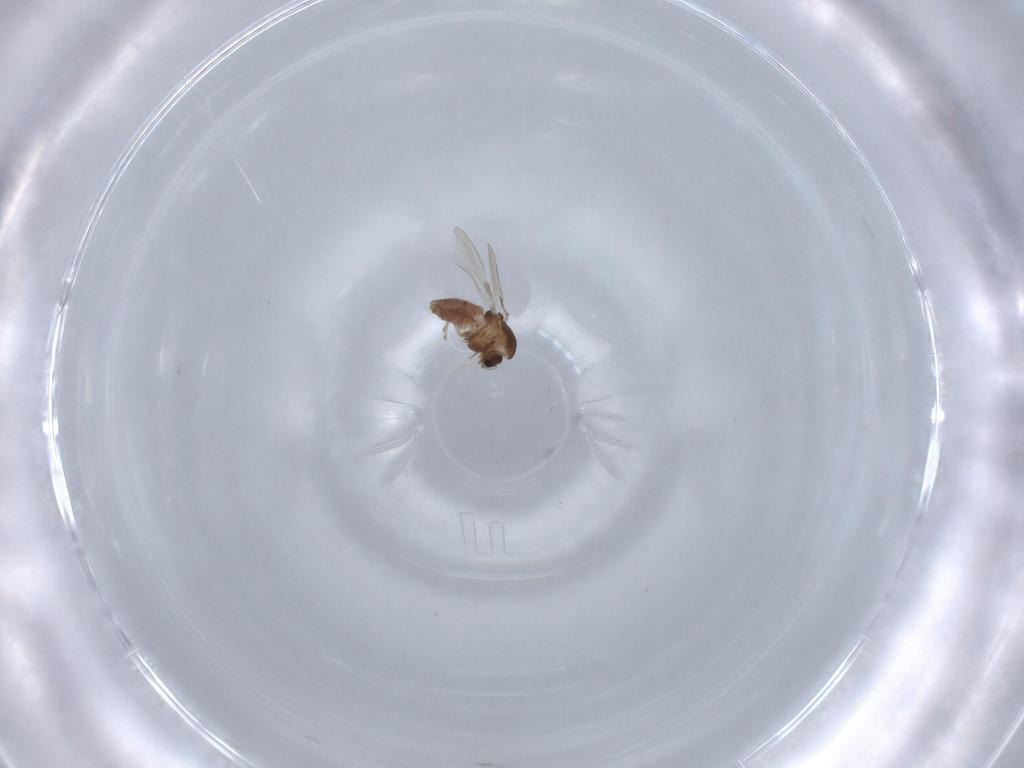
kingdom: Animalia
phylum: Arthropoda
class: Insecta
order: Diptera
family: Syrphidae
